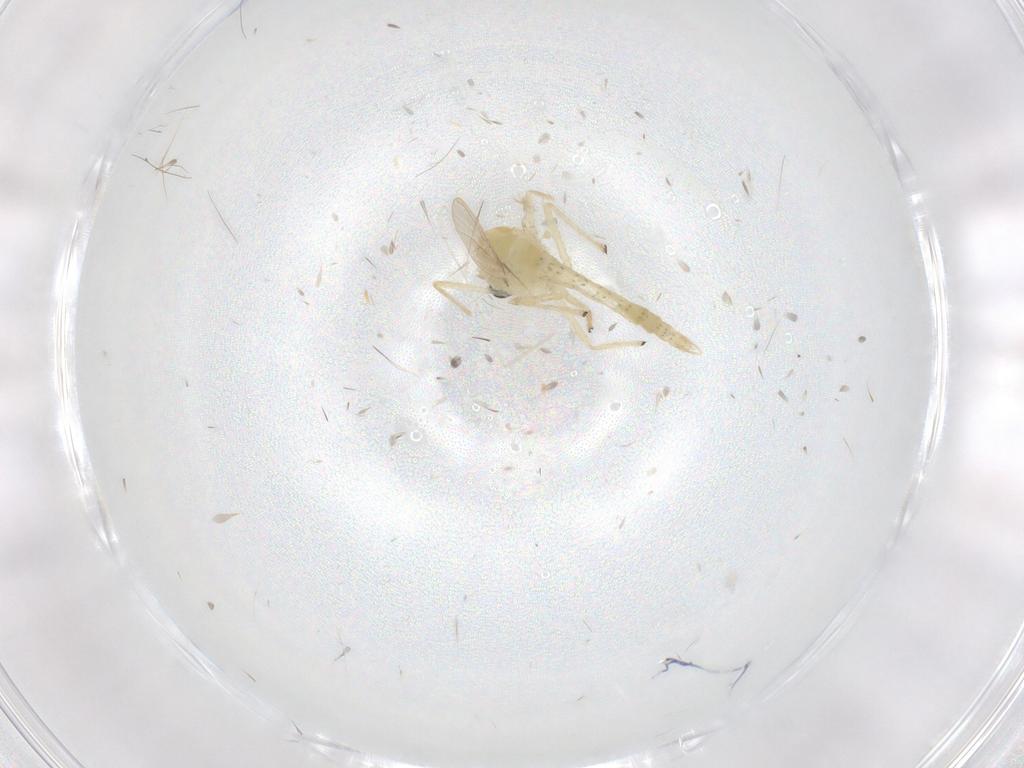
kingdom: Animalia
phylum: Arthropoda
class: Insecta
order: Diptera
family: Chironomidae
